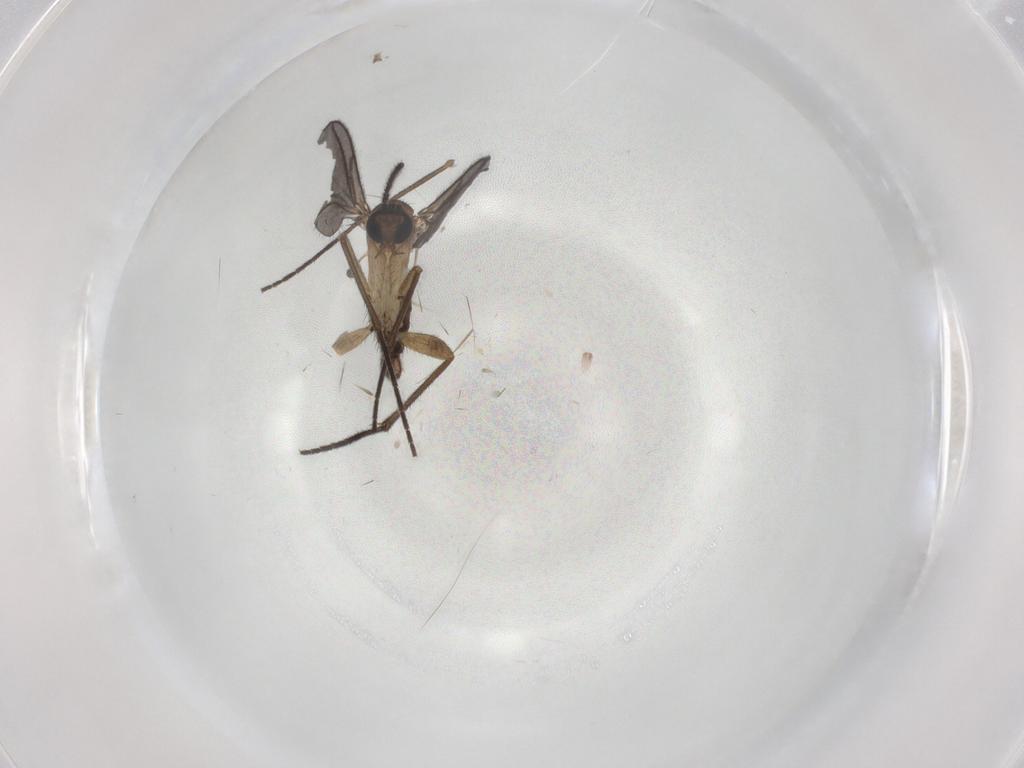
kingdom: Animalia
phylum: Arthropoda
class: Insecta
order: Diptera
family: Sciaridae
